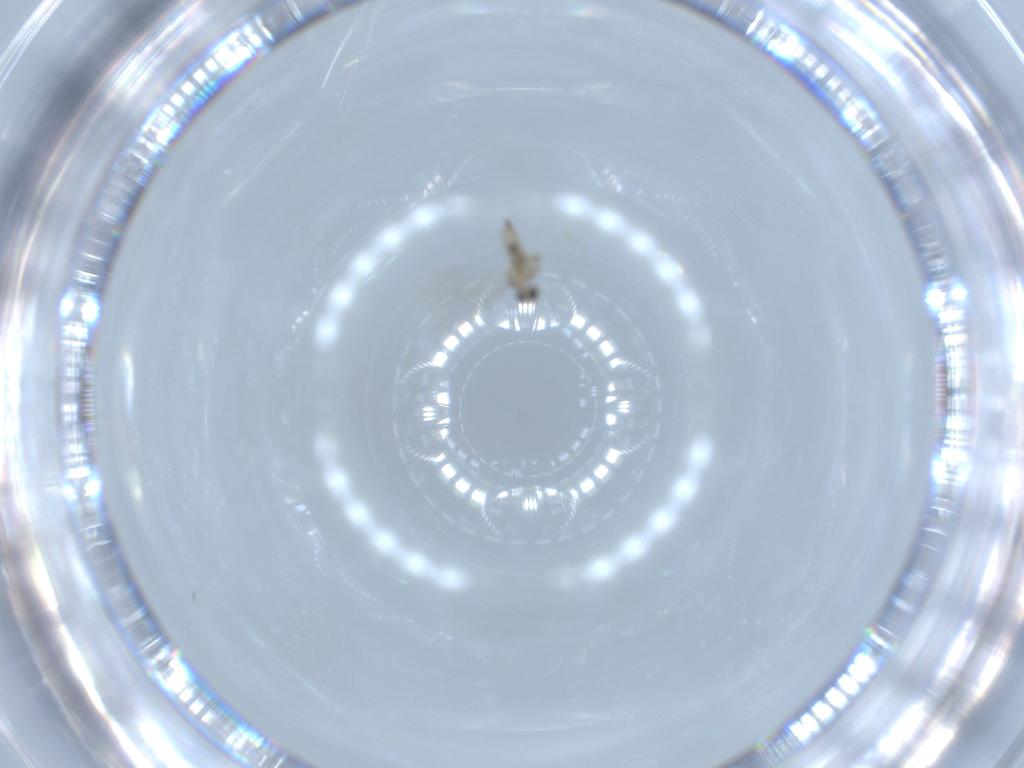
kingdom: Animalia
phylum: Arthropoda
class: Insecta
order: Diptera
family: Cecidomyiidae
